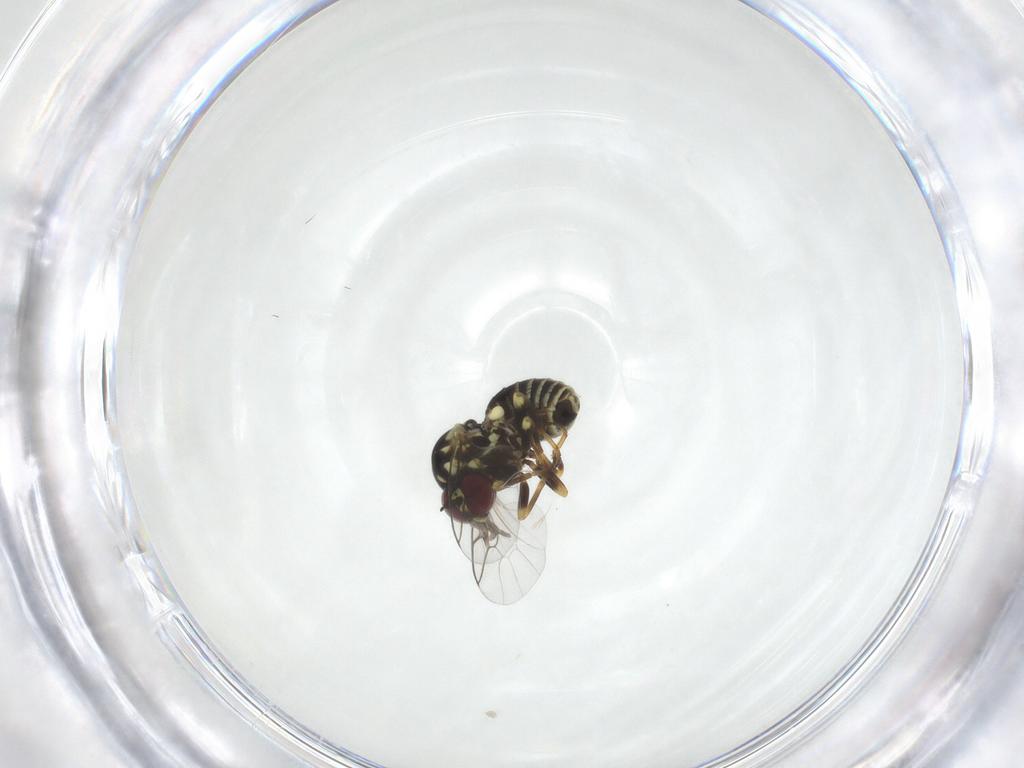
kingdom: Animalia
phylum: Arthropoda
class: Insecta
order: Diptera
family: Mythicomyiidae
